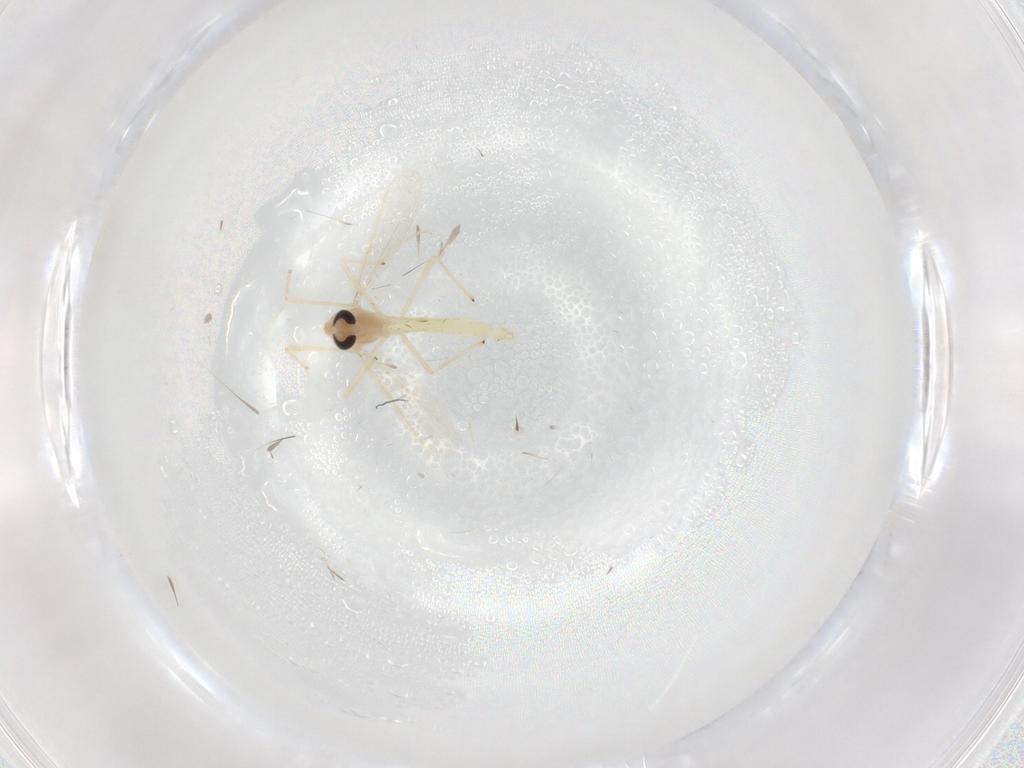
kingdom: Animalia
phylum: Arthropoda
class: Insecta
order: Diptera
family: Chironomidae
